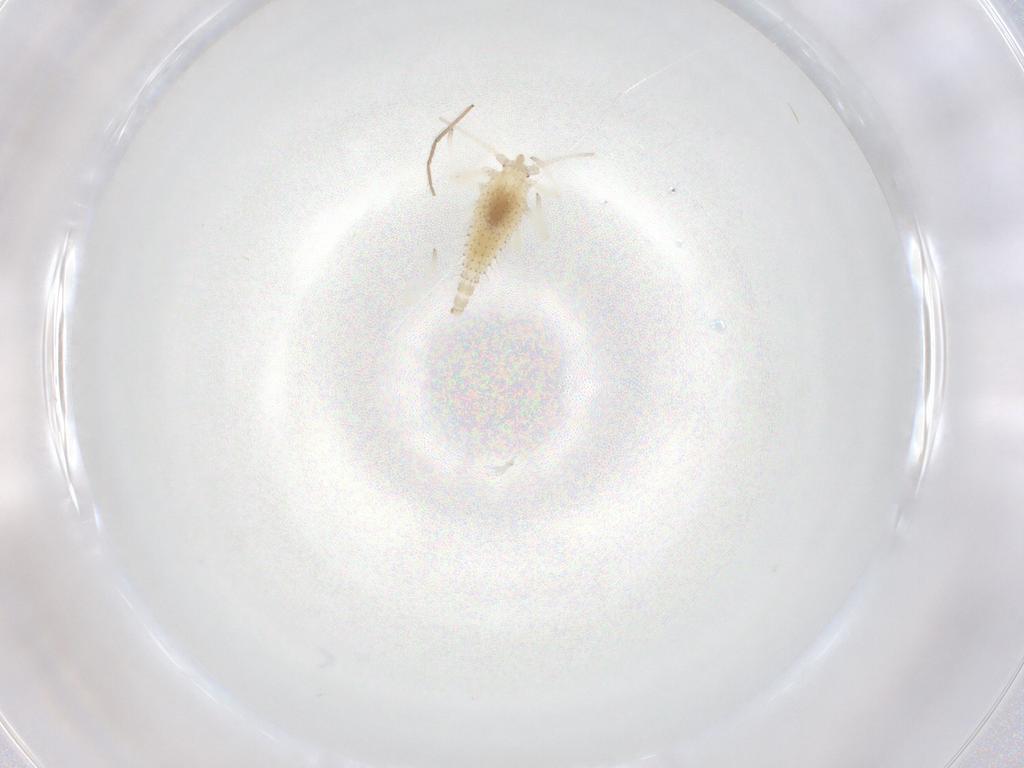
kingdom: Animalia
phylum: Arthropoda
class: Insecta
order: Neuroptera
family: Coniopterygidae
